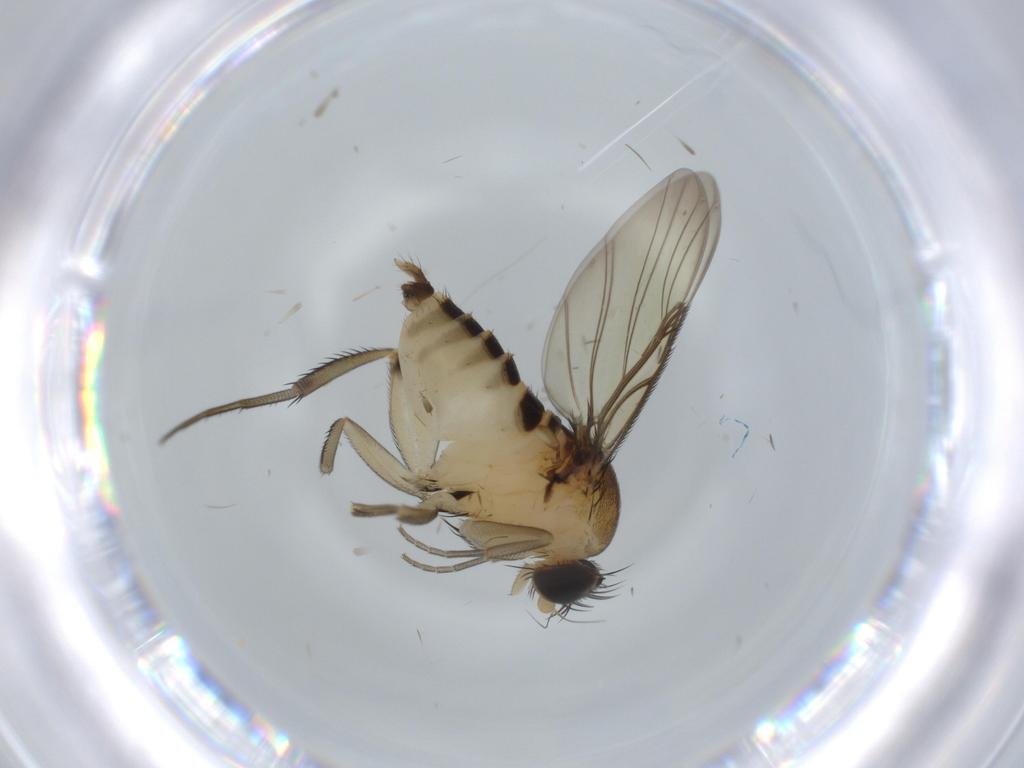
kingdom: Animalia
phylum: Arthropoda
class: Insecta
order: Diptera
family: Phoridae
